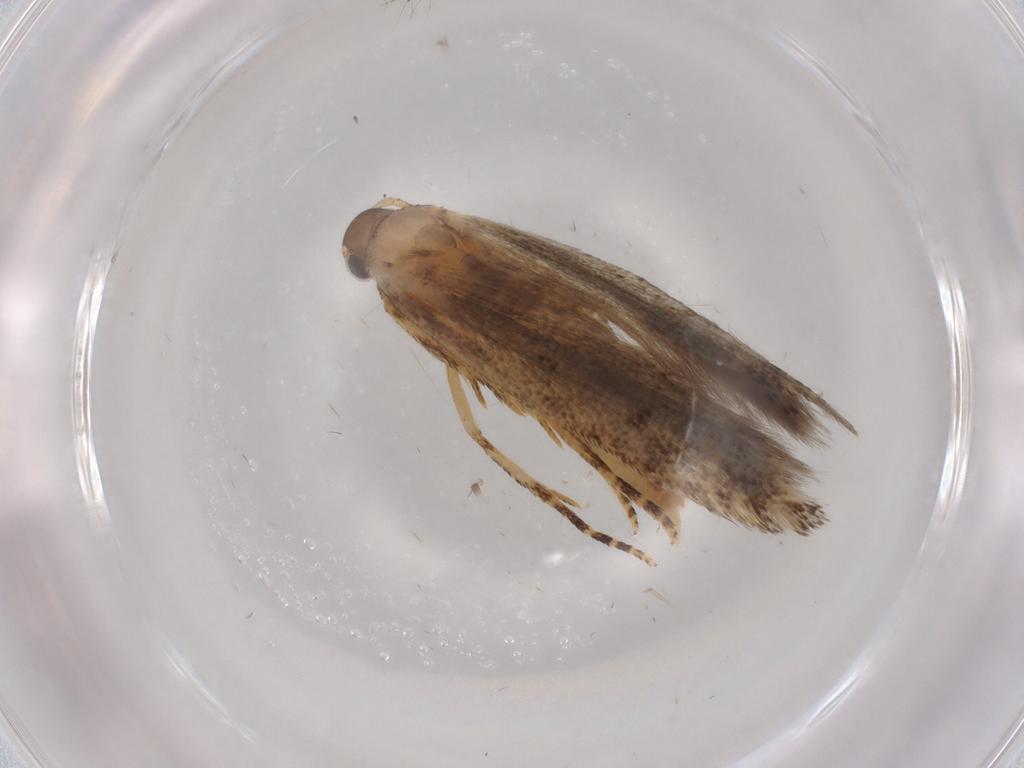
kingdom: Animalia
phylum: Arthropoda
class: Insecta
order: Lepidoptera
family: Gelechiidae
